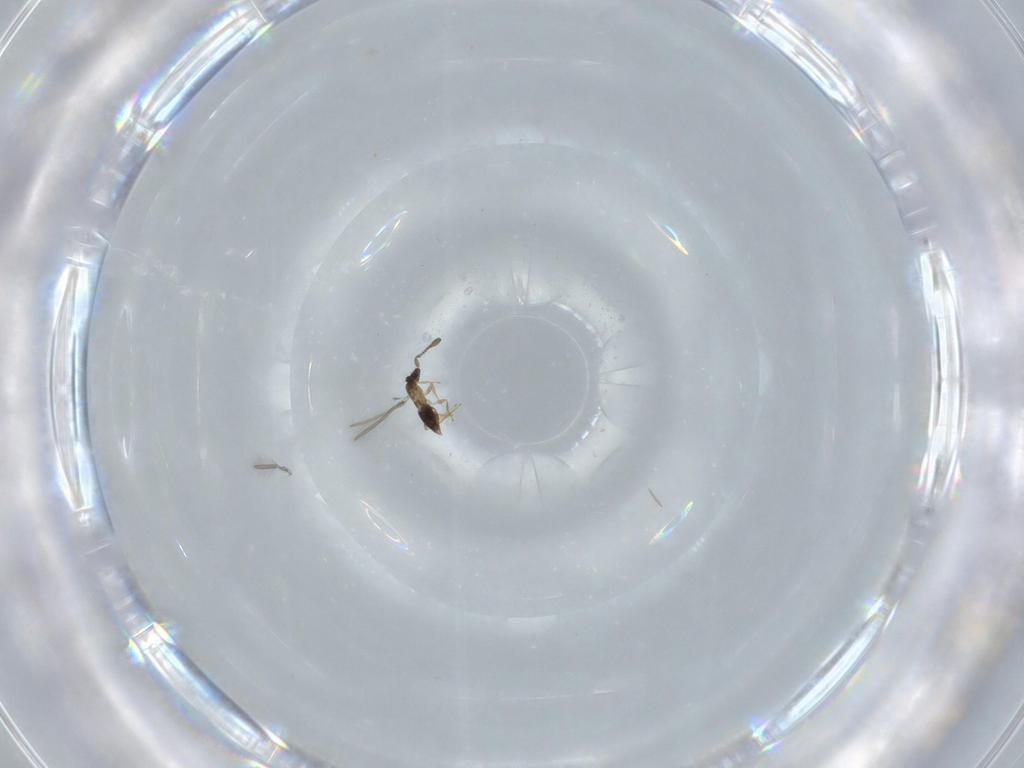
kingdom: Animalia
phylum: Arthropoda
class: Insecta
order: Hymenoptera
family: Mymaridae
